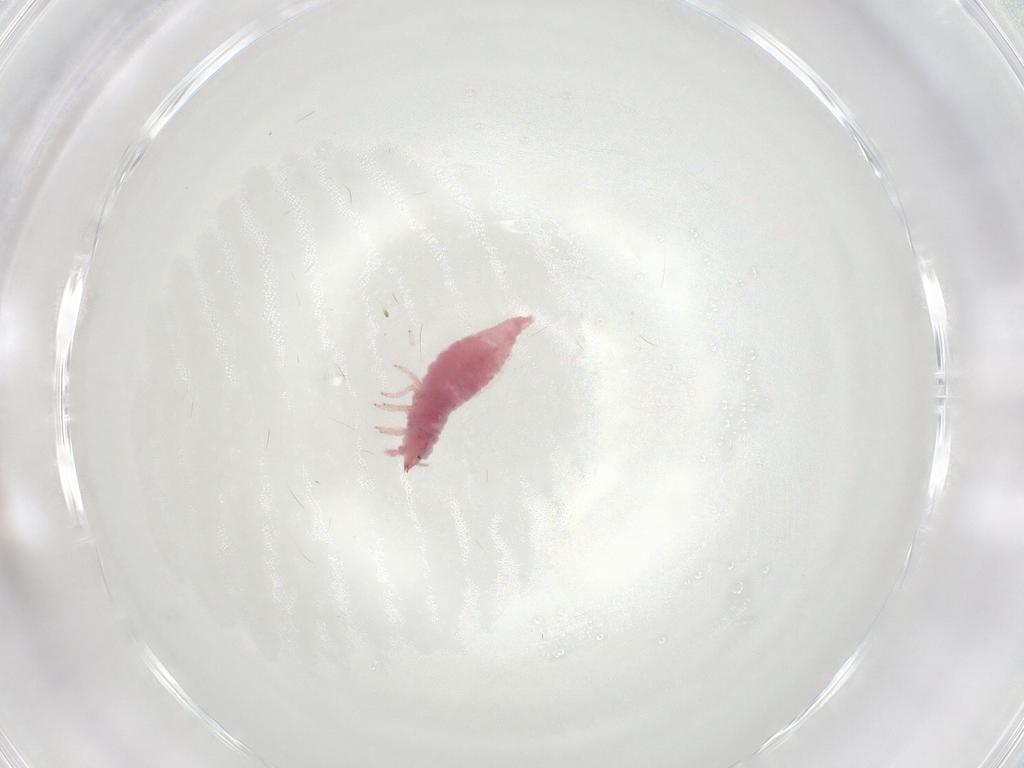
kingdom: Animalia
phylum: Arthropoda
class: Insecta
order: Neuroptera
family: Coniopterygidae
